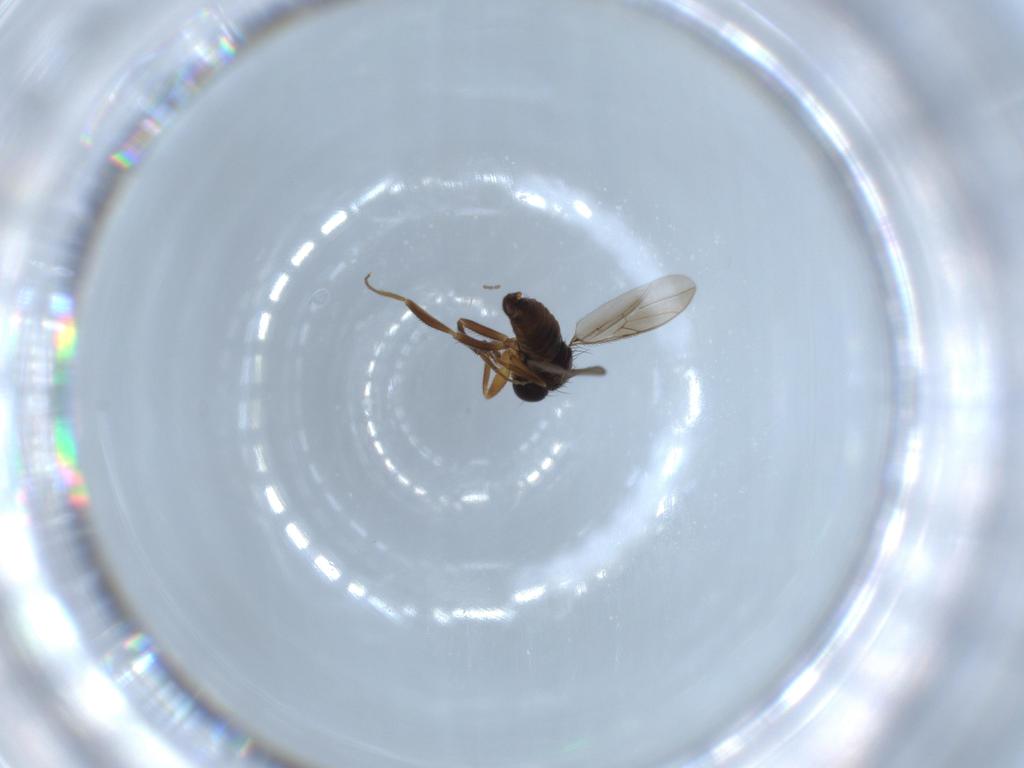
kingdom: Animalia
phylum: Arthropoda
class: Insecta
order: Diptera
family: Hybotidae
